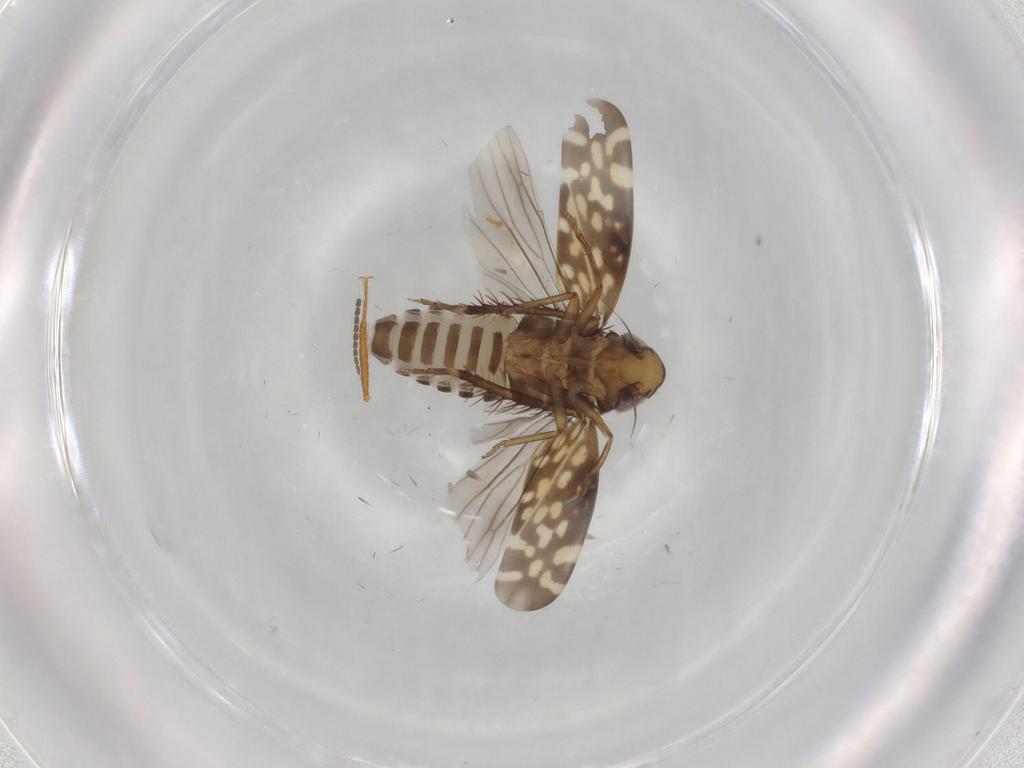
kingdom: Animalia
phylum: Arthropoda
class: Insecta
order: Hemiptera
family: Cicadellidae
